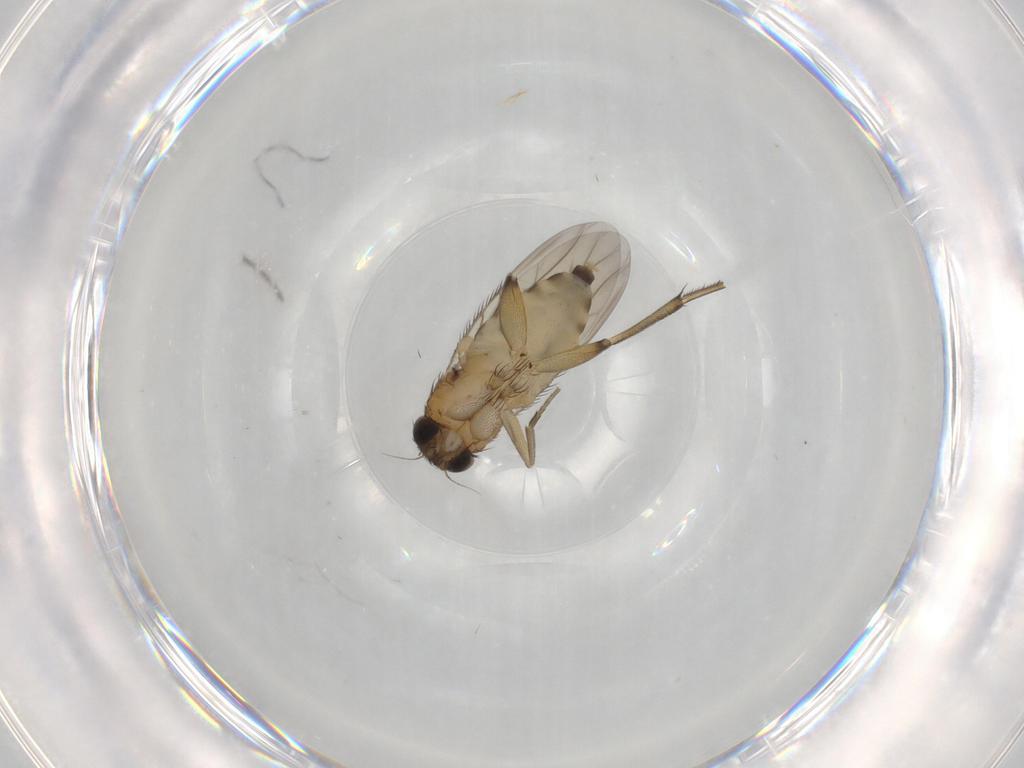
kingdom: Animalia
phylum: Arthropoda
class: Insecta
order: Diptera
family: Phoridae
